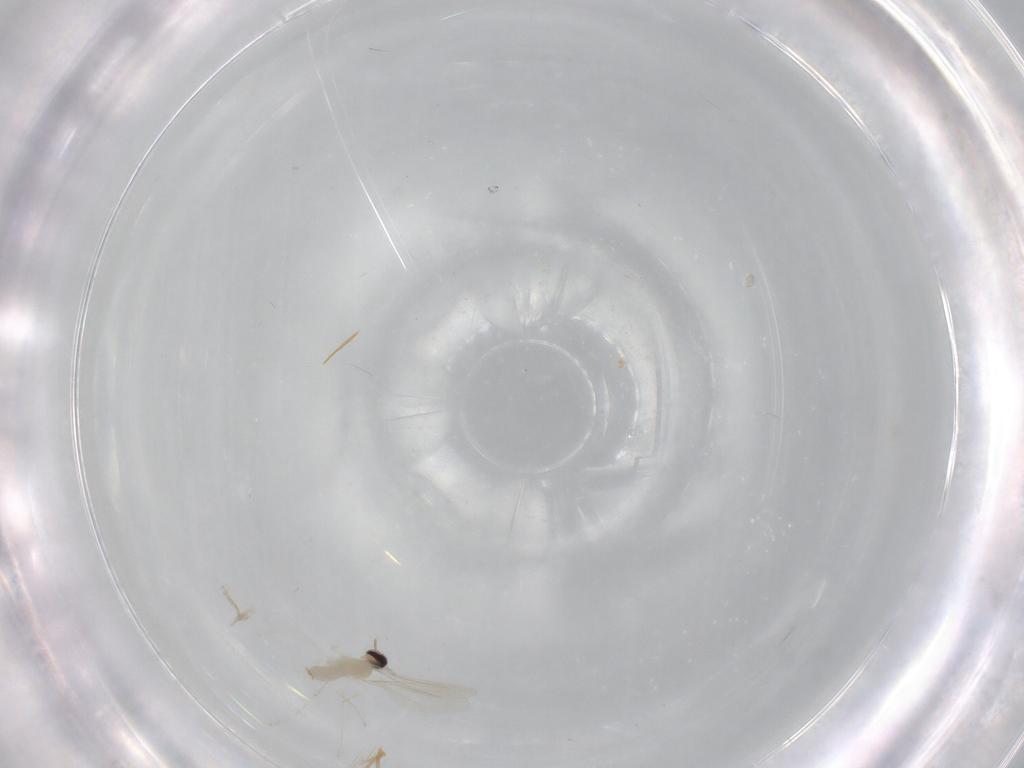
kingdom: Animalia
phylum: Arthropoda
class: Insecta
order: Diptera
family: Cecidomyiidae
